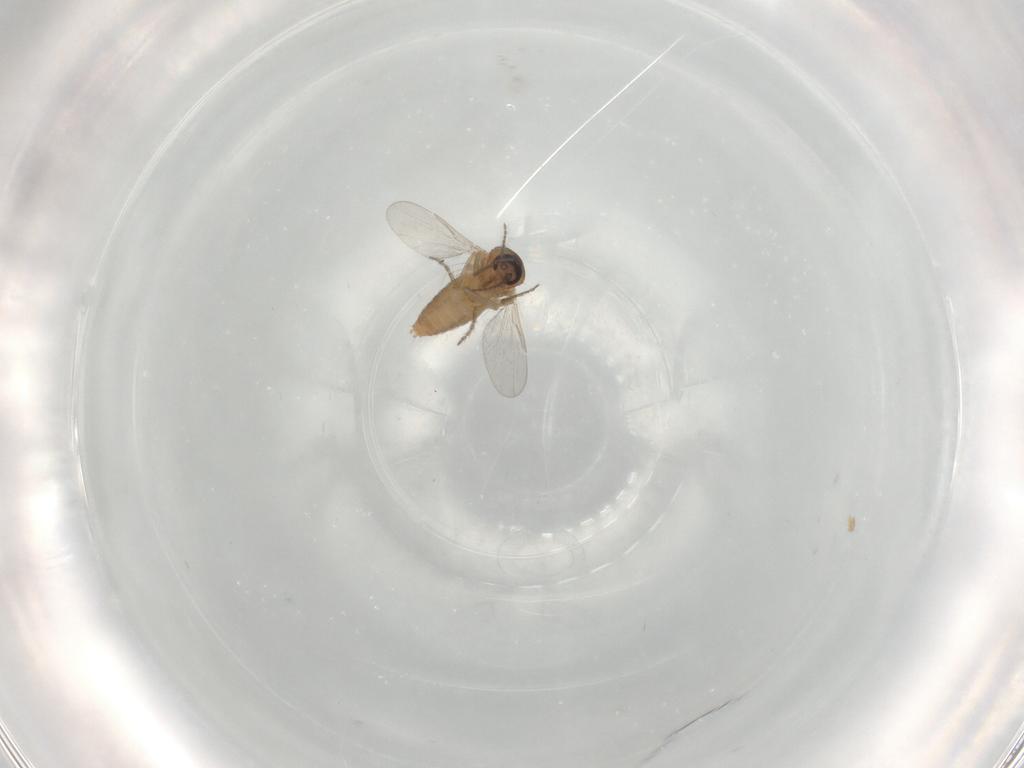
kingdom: Animalia
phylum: Arthropoda
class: Insecta
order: Diptera
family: Ceratopogonidae
